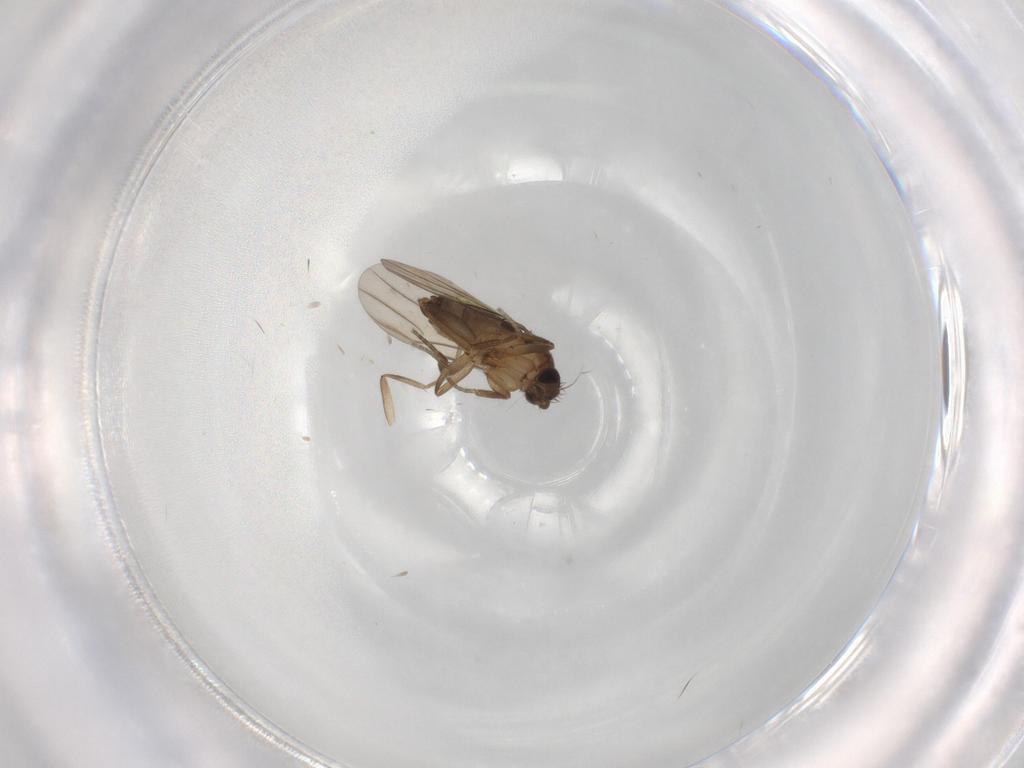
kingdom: Animalia
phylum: Arthropoda
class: Insecta
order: Diptera
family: Phoridae
